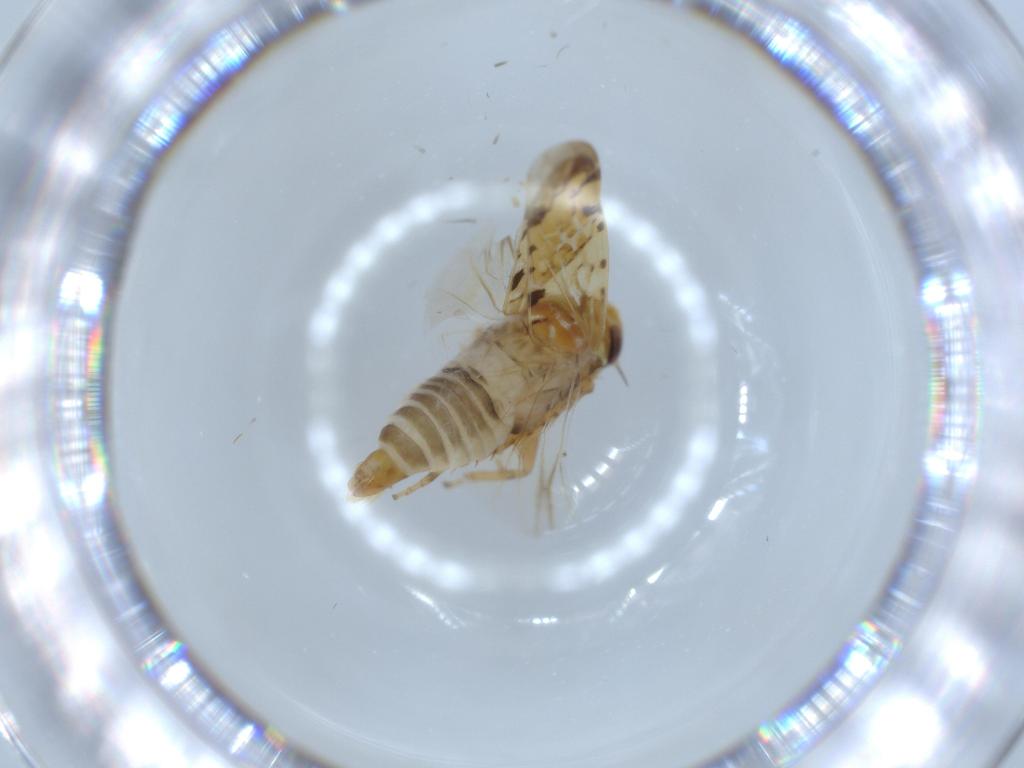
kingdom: Animalia
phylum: Arthropoda
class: Insecta
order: Hemiptera
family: Cicadellidae
